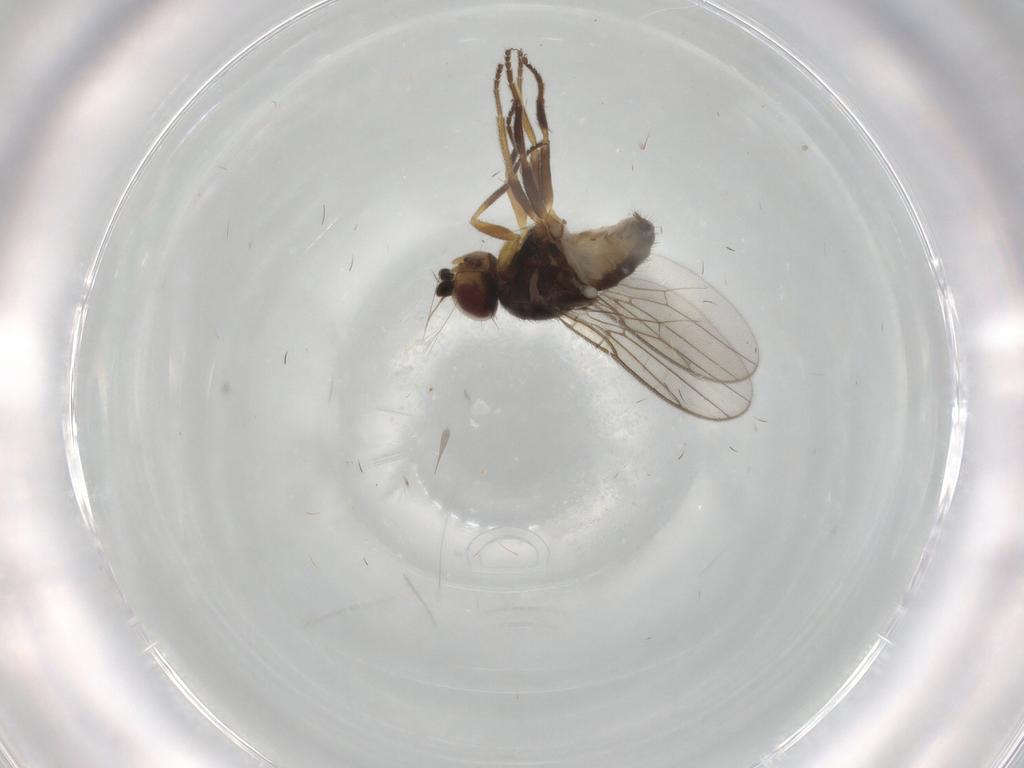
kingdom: Animalia
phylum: Arthropoda
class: Insecta
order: Diptera
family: Chloropidae
